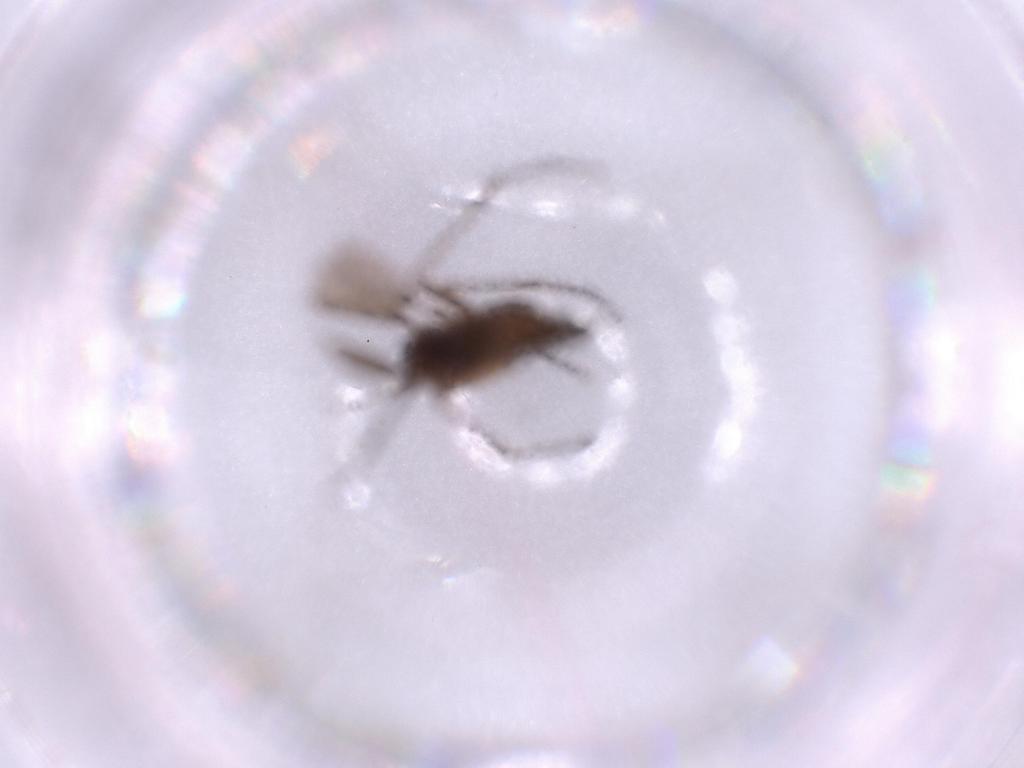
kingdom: Animalia
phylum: Arthropoda
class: Insecta
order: Diptera
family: Sciaridae
